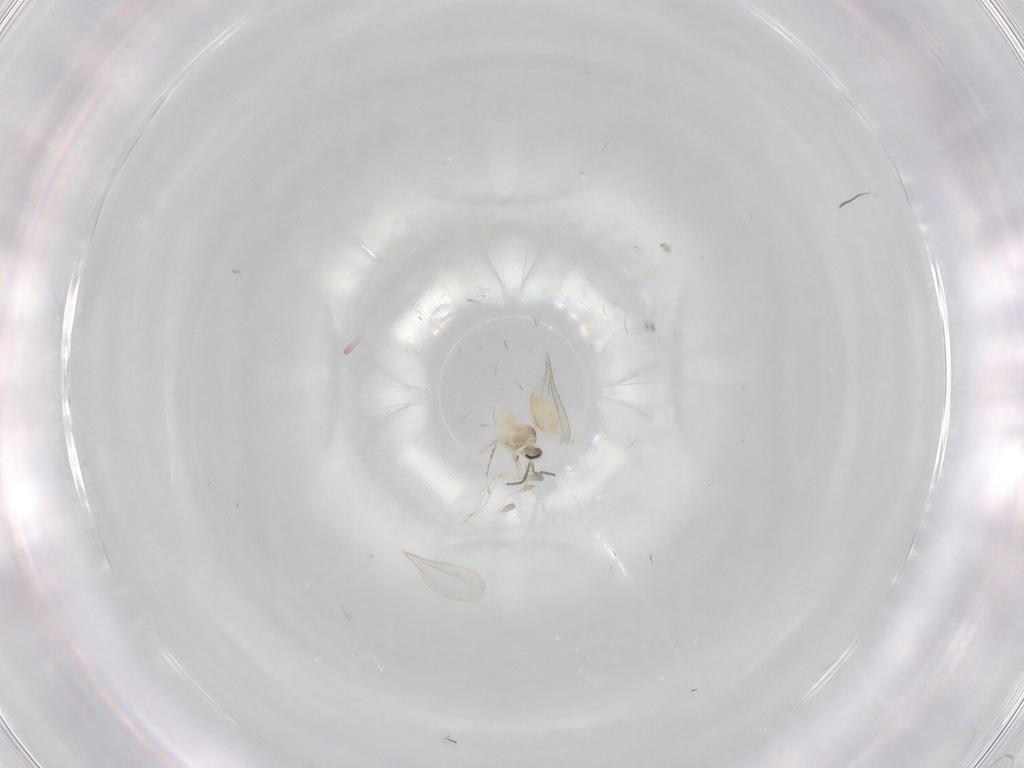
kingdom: Animalia
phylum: Arthropoda
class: Insecta
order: Diptera
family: Cecidomyiidae
